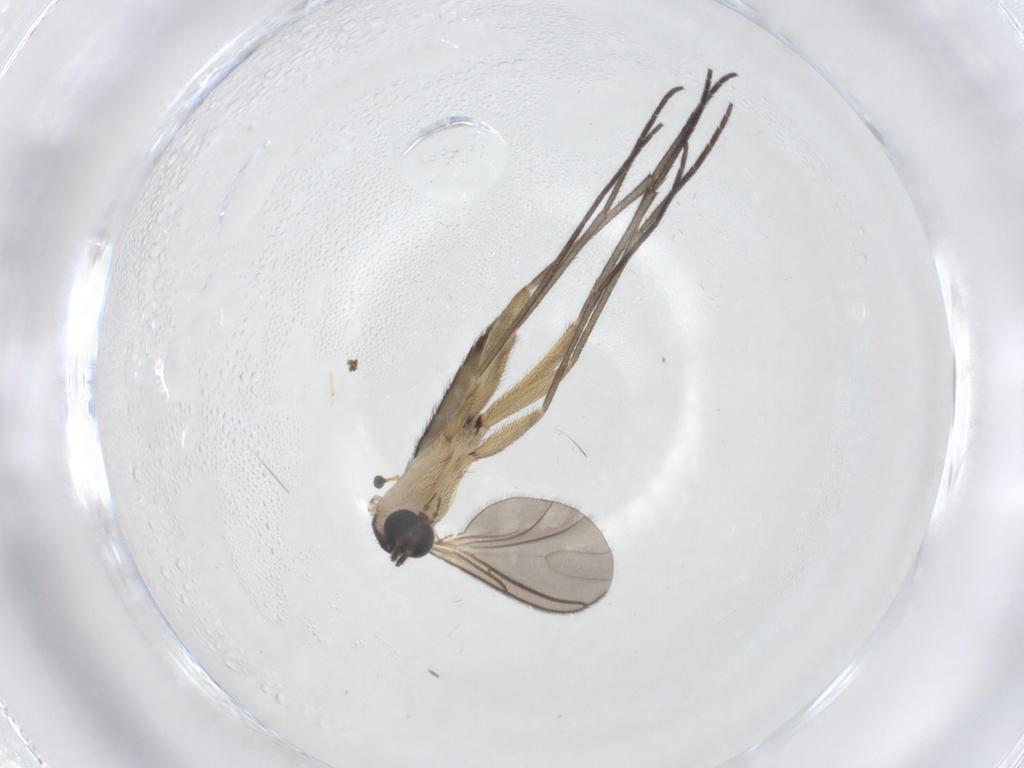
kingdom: Animalia
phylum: Arthropoda
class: Insecta
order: Diptera
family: Sciaridae
